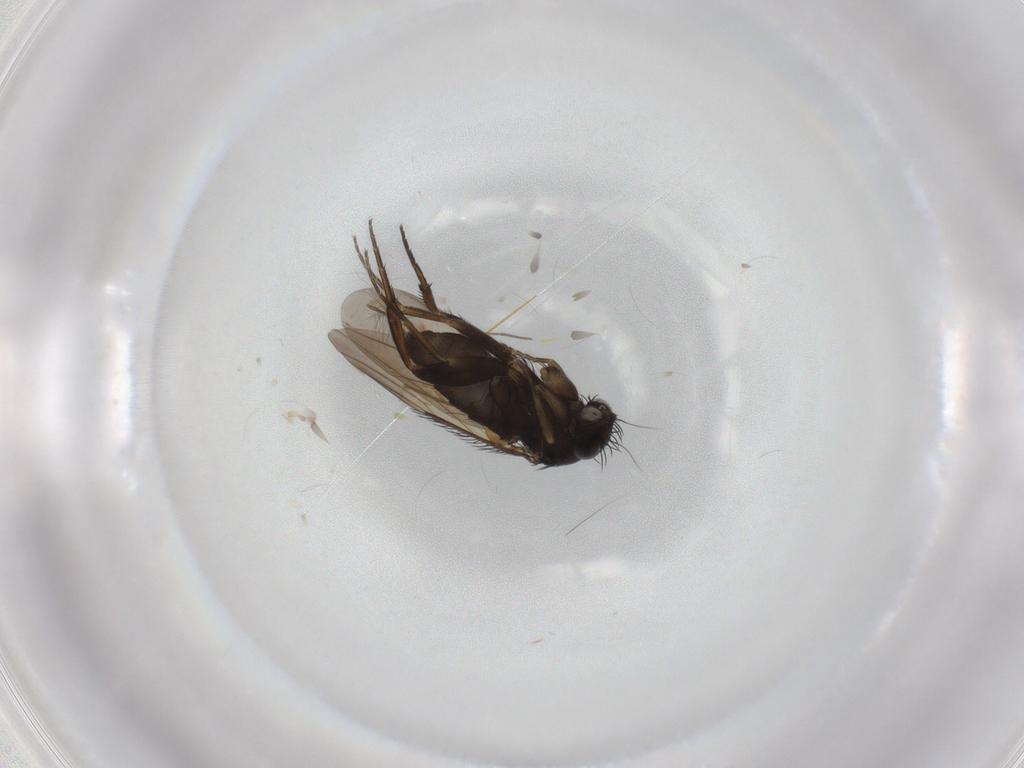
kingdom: Animalia
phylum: Arthropoda
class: Insecta
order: Diptera
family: Phoridae
